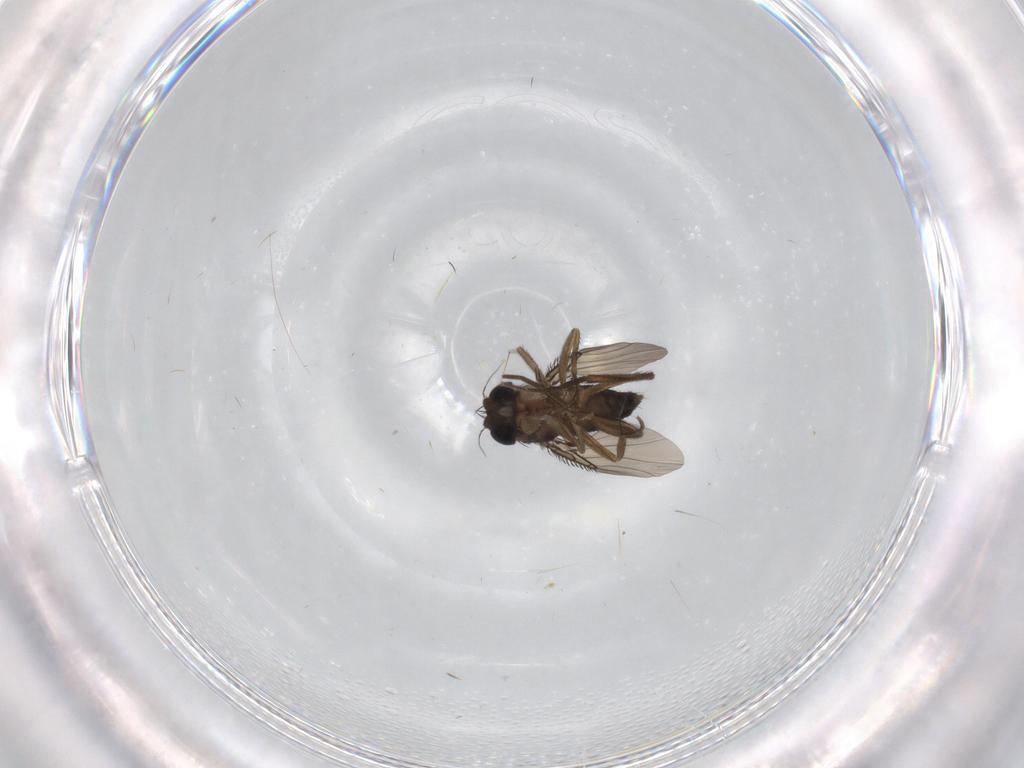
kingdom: Animalia
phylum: Arthropoda
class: Insecta
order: Diptera
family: Phoridae
